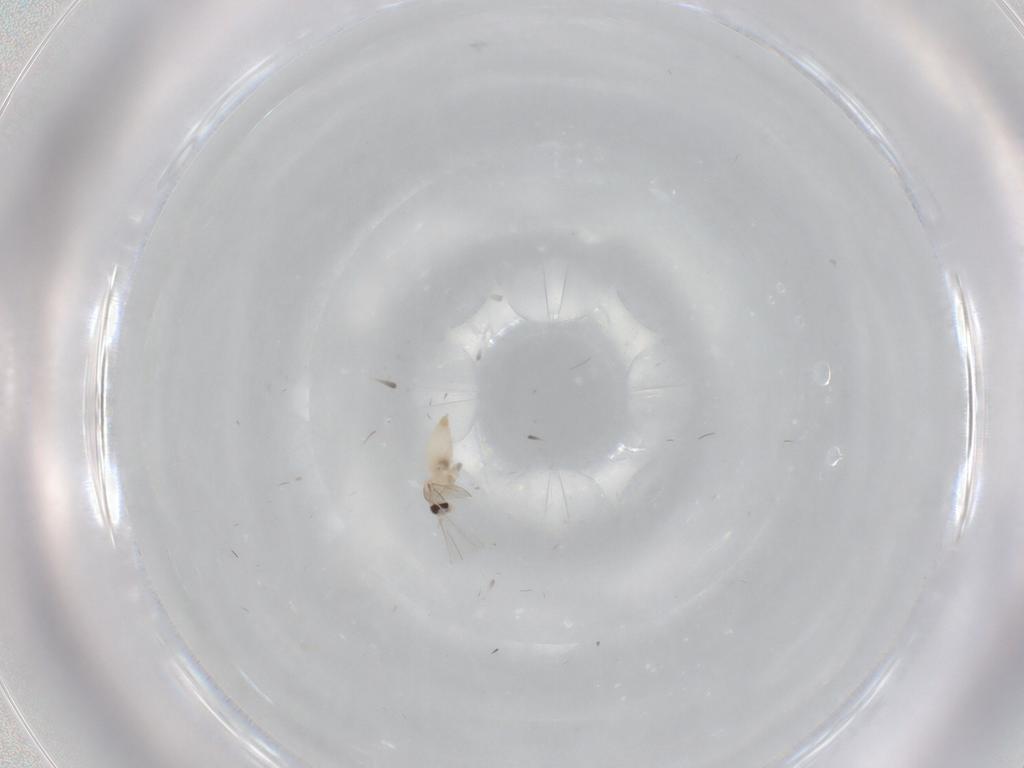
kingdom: Animalia
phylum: Arthropoda
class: Insecta
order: Diptera
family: Cecidomyiidae
